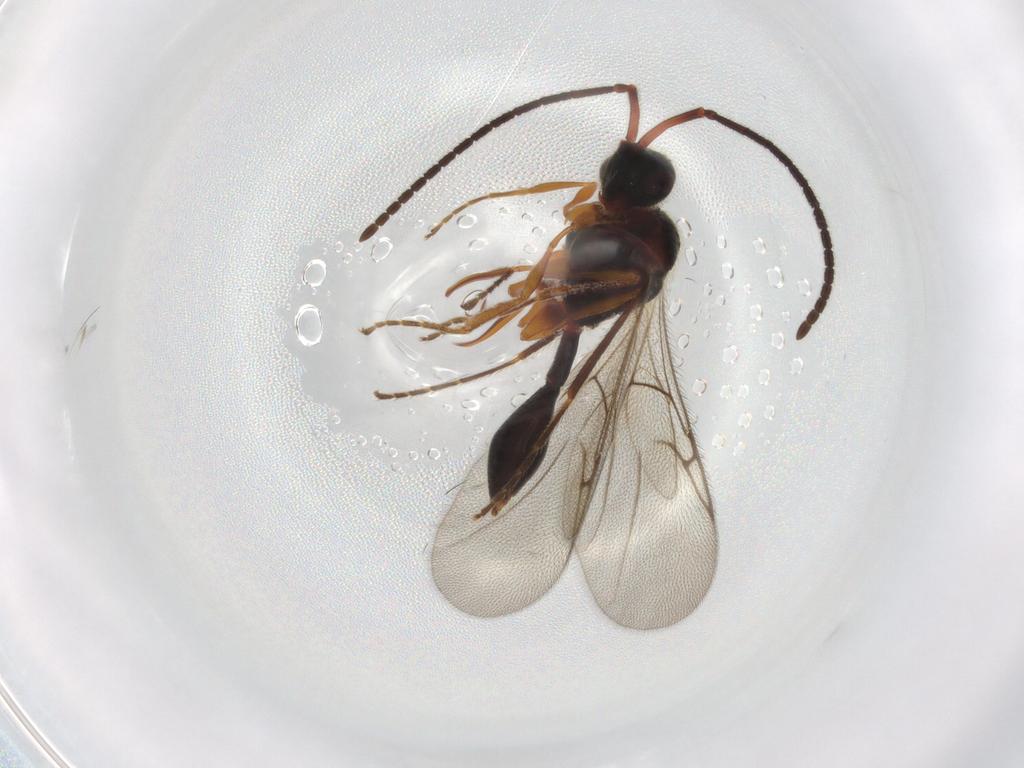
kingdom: Animalia
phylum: Arthropoda
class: Insecta
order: Hymenoptera
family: Diapriidae
